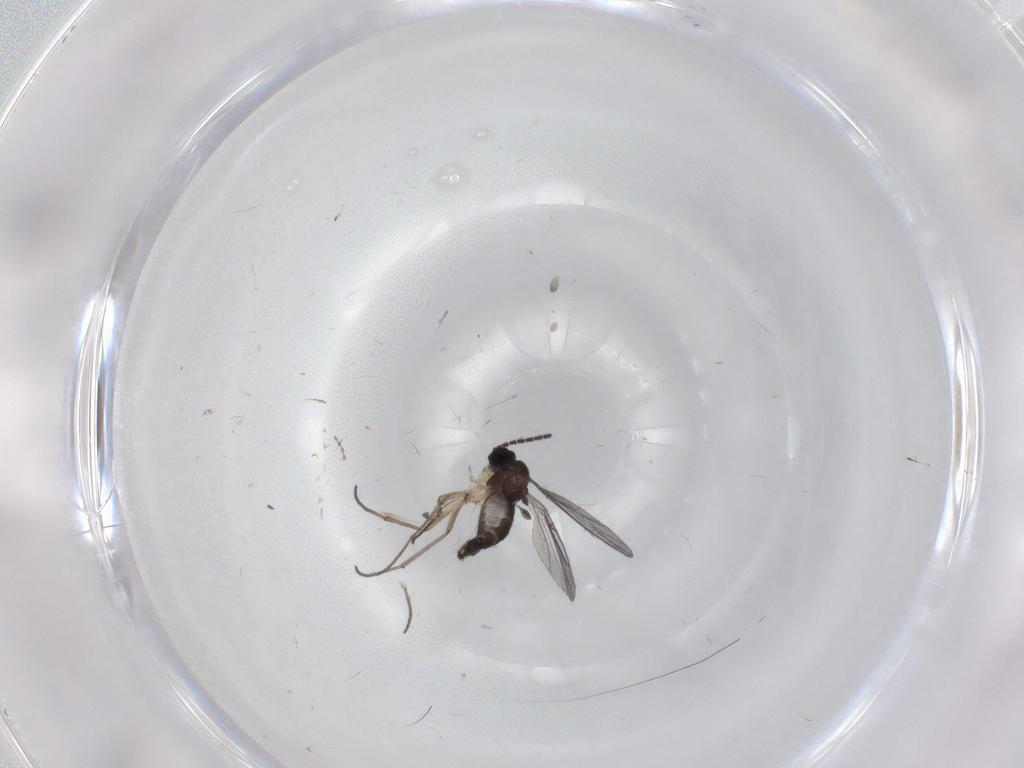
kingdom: Animalia
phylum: Arthropoda
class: Insecta
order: Diptera
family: Sciaridae
